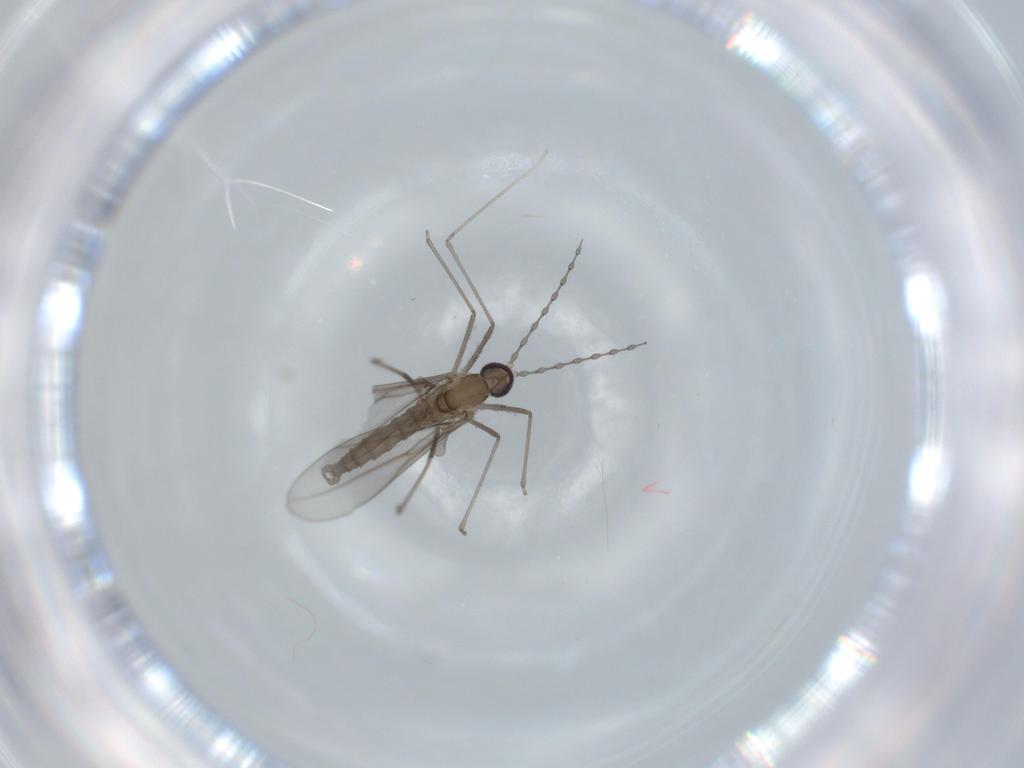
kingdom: Animalia
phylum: Arthropoda
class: Insecta
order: Diptera
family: Cecidomyiidae
